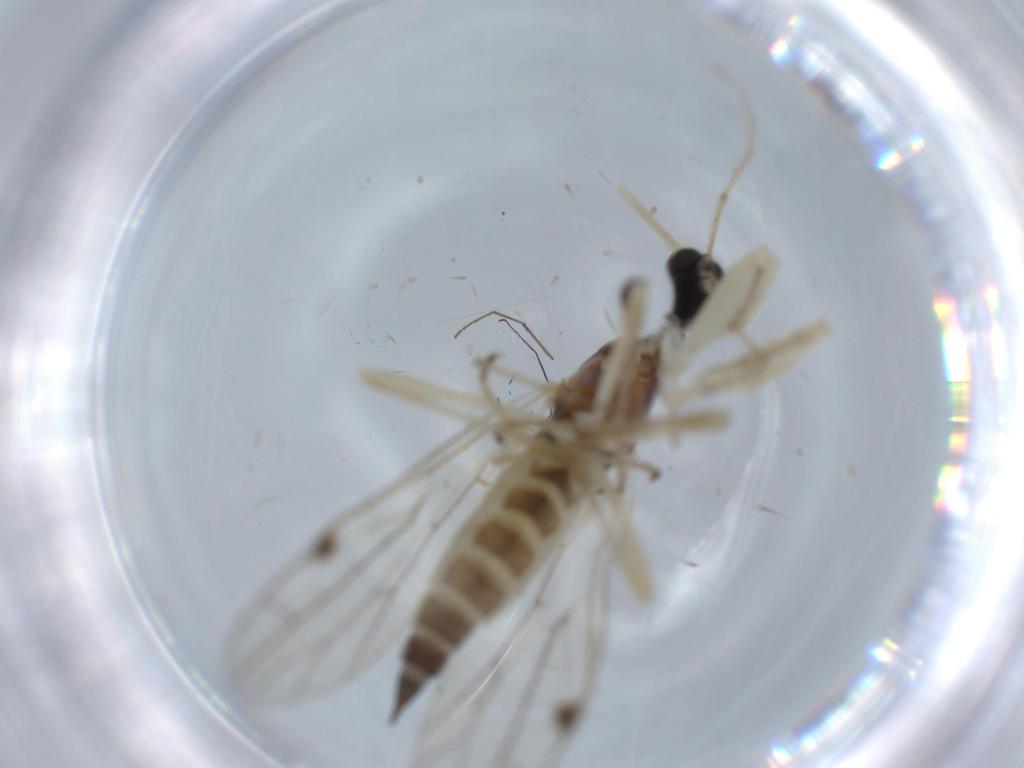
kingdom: Animalia
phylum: Arthropoda
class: Insecta
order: Diptera
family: Empididae
